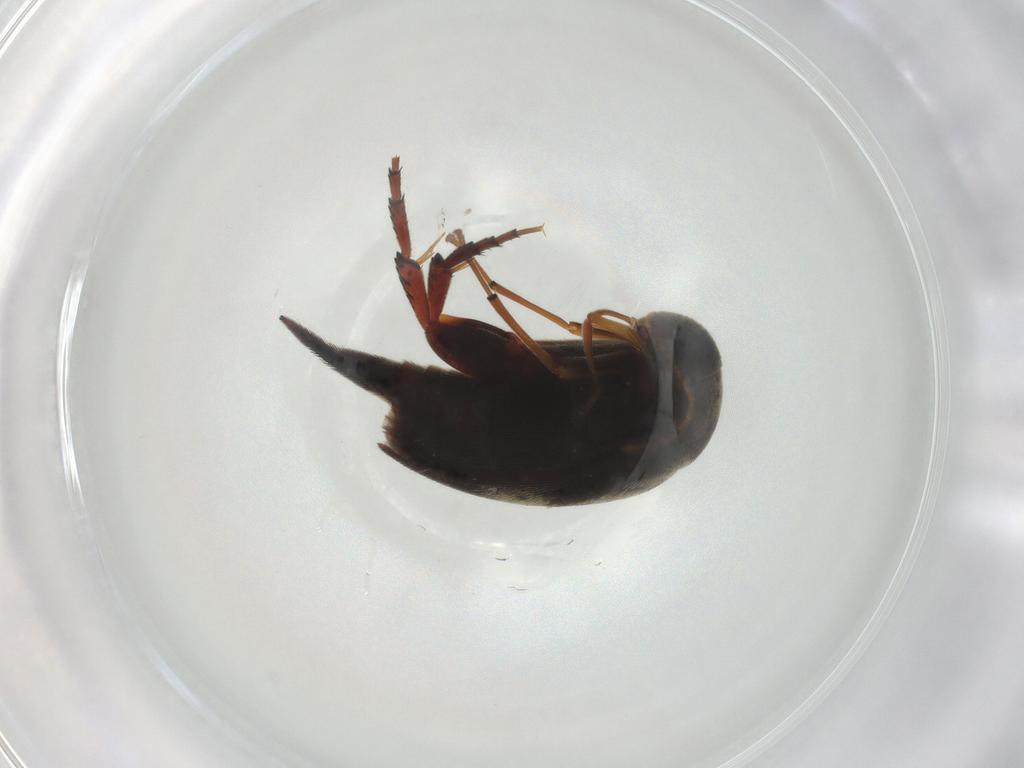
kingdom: Animalia
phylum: Arthropoda
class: Insecta
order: Coleoptera
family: Mordellidae
